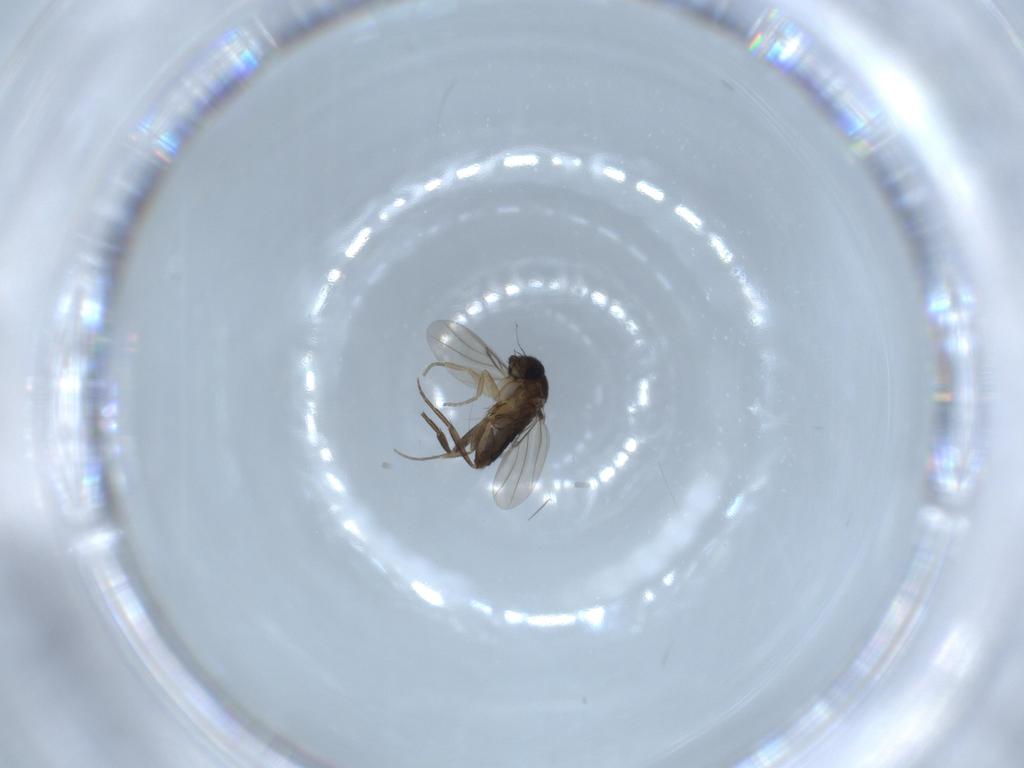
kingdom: Animalia
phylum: Arthropoda
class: Insecta
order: Diptera
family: Phoridae
